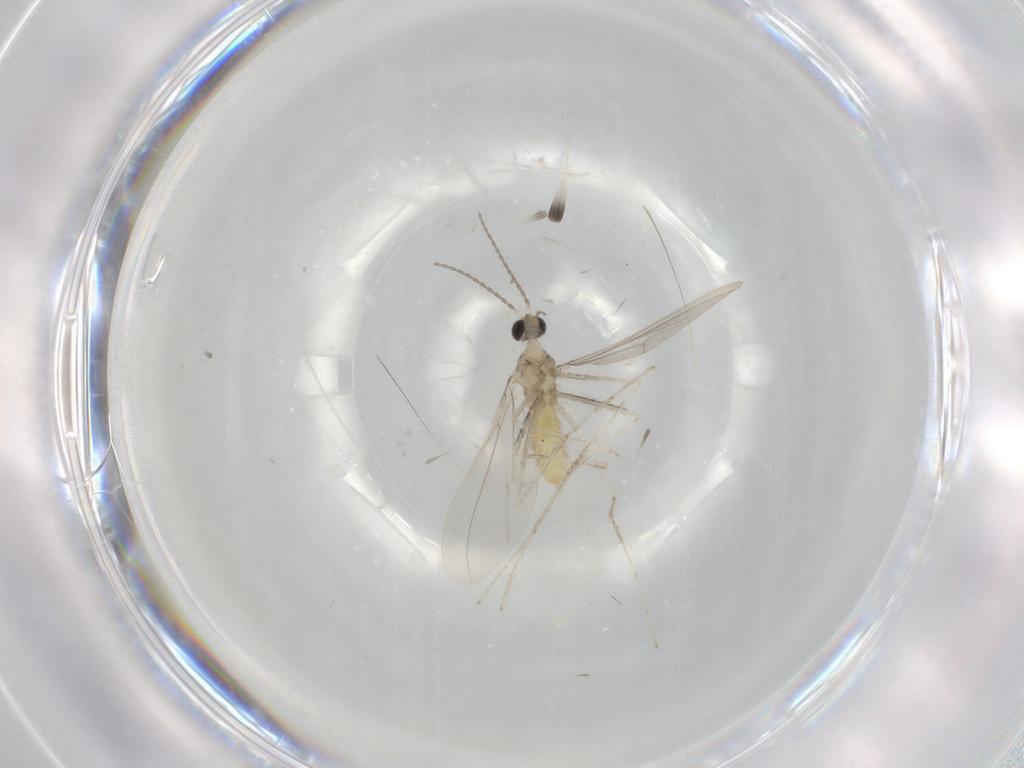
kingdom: Animalia
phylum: Arthropoda
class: Insecta
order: Diptera
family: Cecidomyiidae
